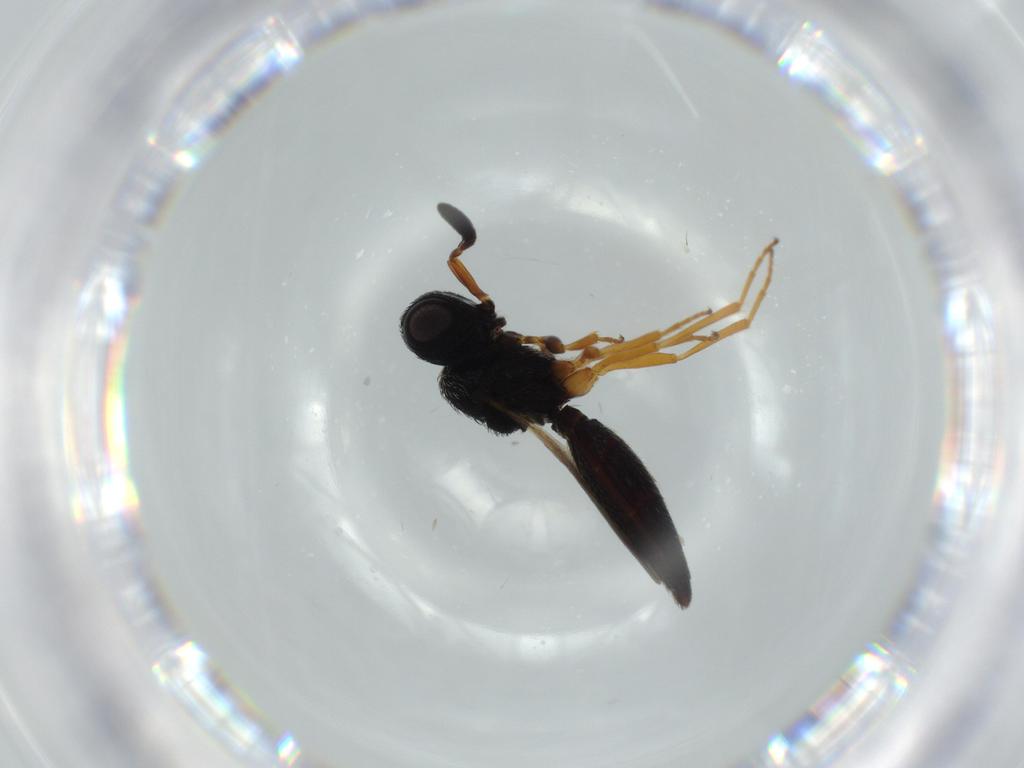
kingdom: Animalia
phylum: Arthropoda
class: Insecta
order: Hymenoptera
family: Scelionidae
